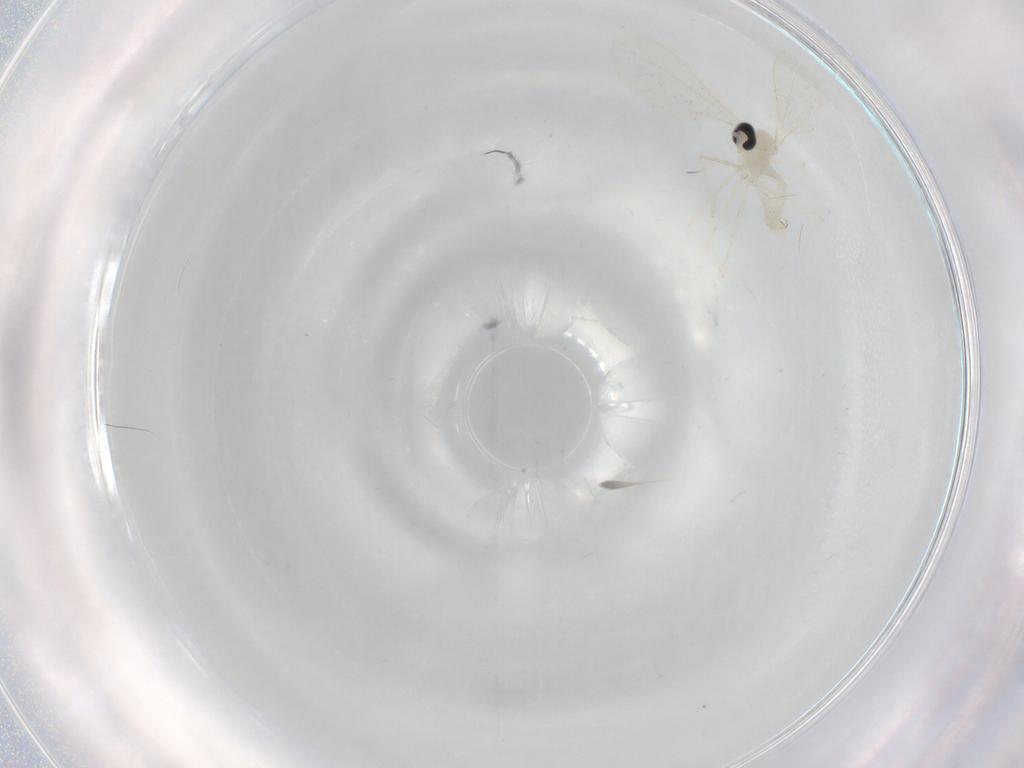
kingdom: Animalia
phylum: Arthropoda
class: Insecta
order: Diptera
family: Cecidomyiidae
